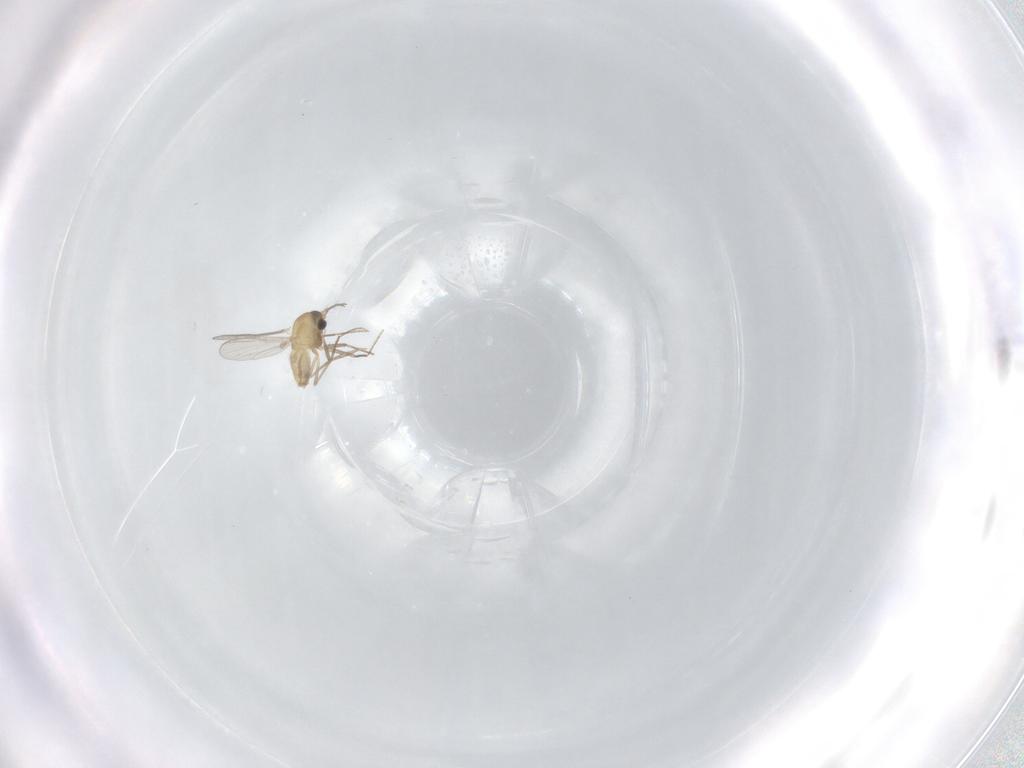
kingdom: Animalia
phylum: Arthropoda
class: Insecta
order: Diptera
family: Chironomidae
